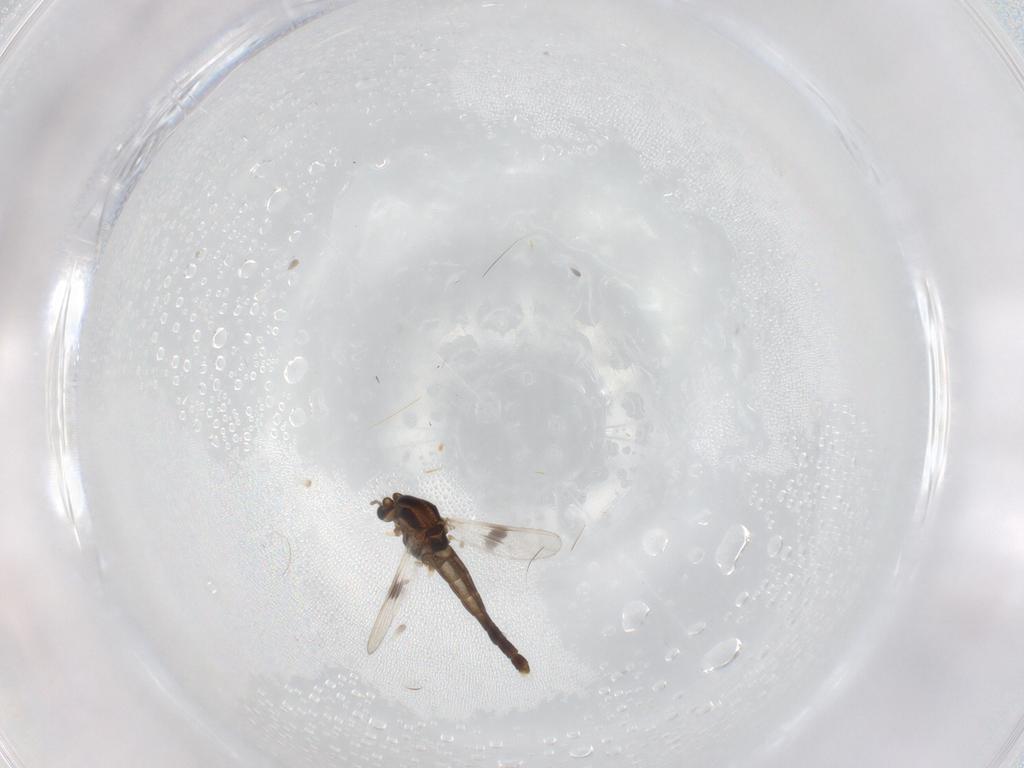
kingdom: Animalia
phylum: Arthropoda
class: Insecta
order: Diptera
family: Chironomidae
